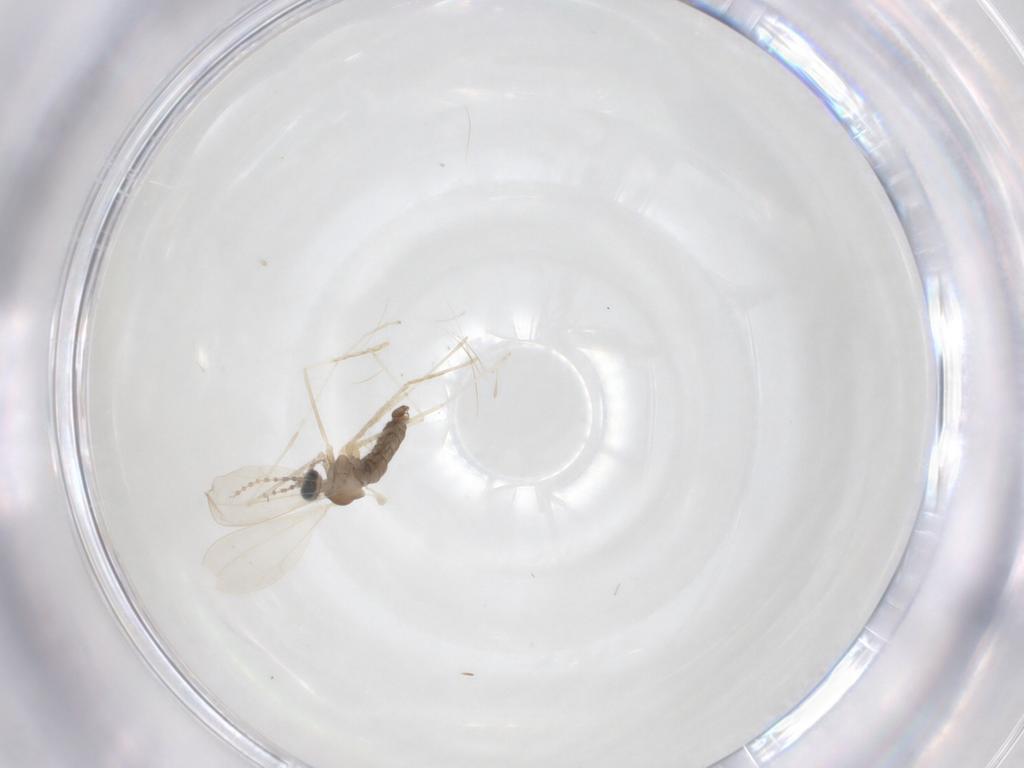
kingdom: Animalia
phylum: Arthropoda
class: Insecta
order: Diptera
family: Cecidomyiidae
